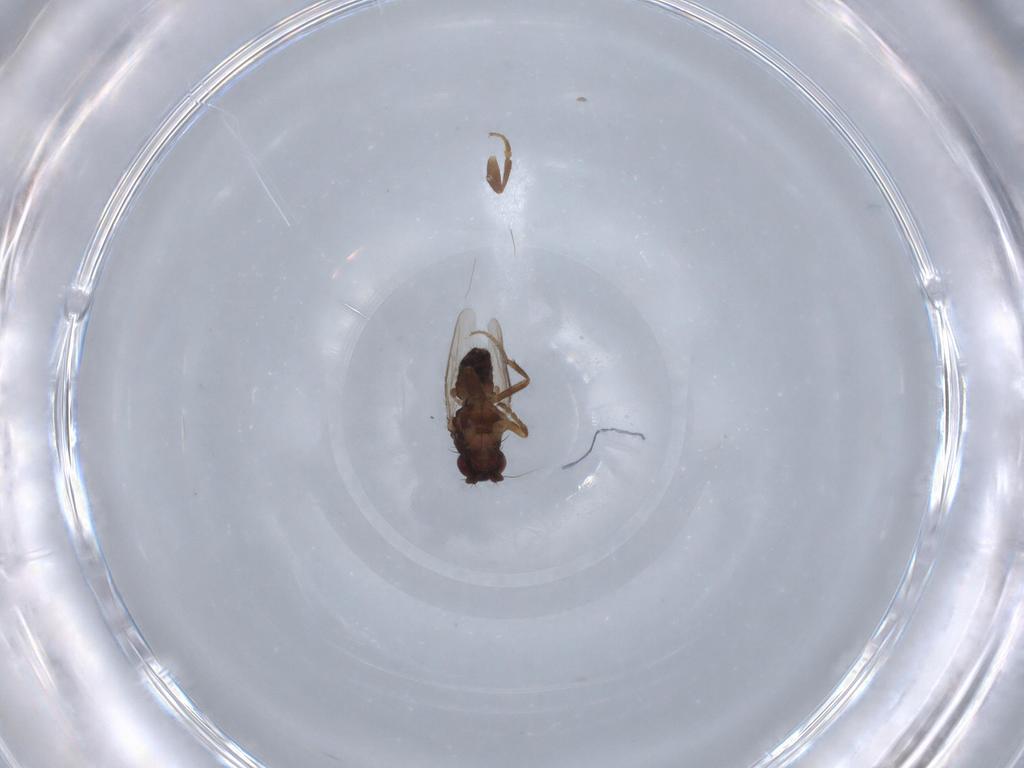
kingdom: Animalia
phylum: Arthropoda
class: Insecta
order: Diptera
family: Sphaeroceridae
